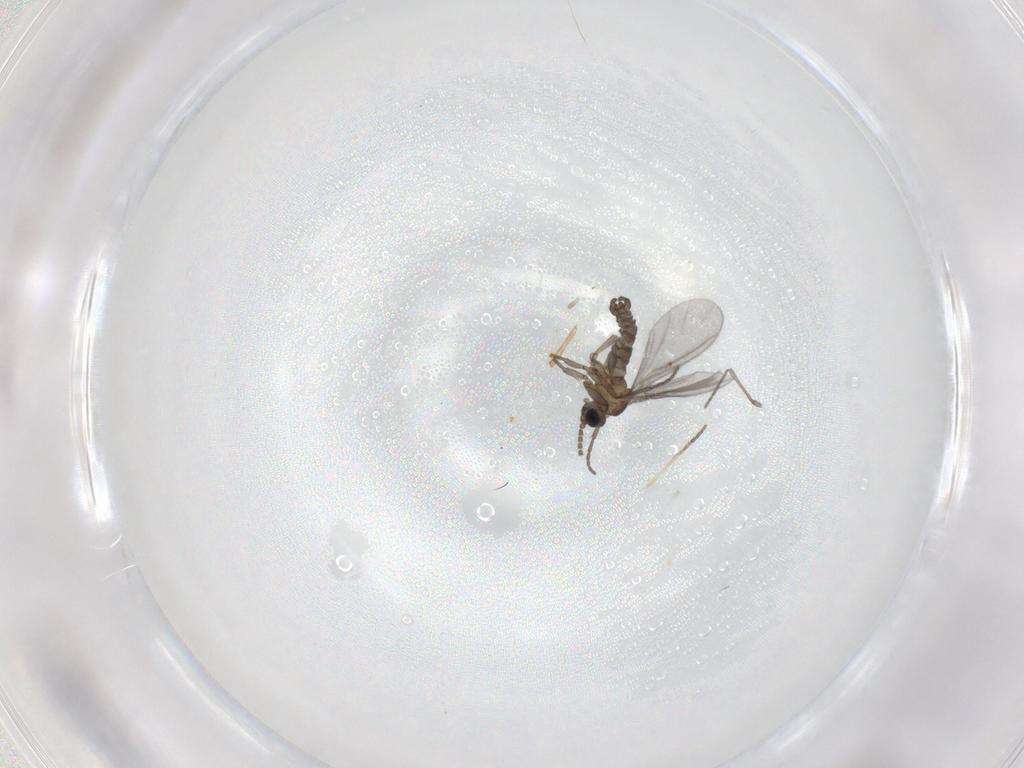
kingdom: Animalia
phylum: Arthropoda
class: Insecta
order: Diptera
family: Sciaridae
